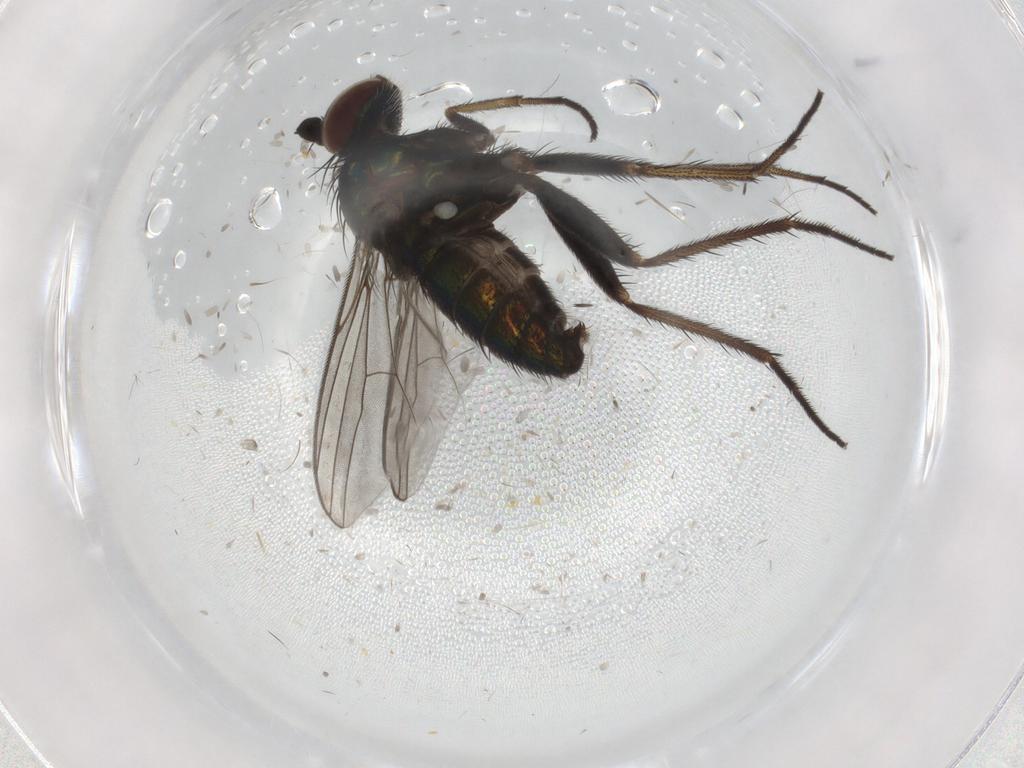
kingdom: Animalia
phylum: Arthropoda
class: Insecta
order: Diptera
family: Dolichopodidae
